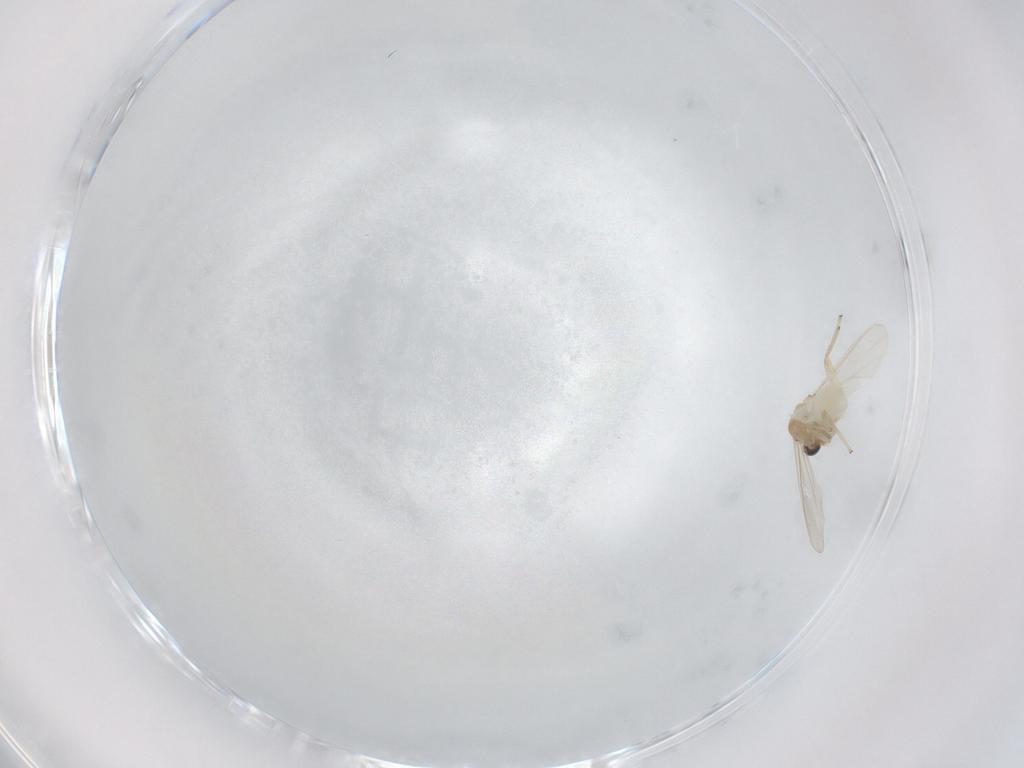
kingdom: Animalia
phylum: Arthropoda
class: Insecta
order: Diptera
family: Chironomidae
